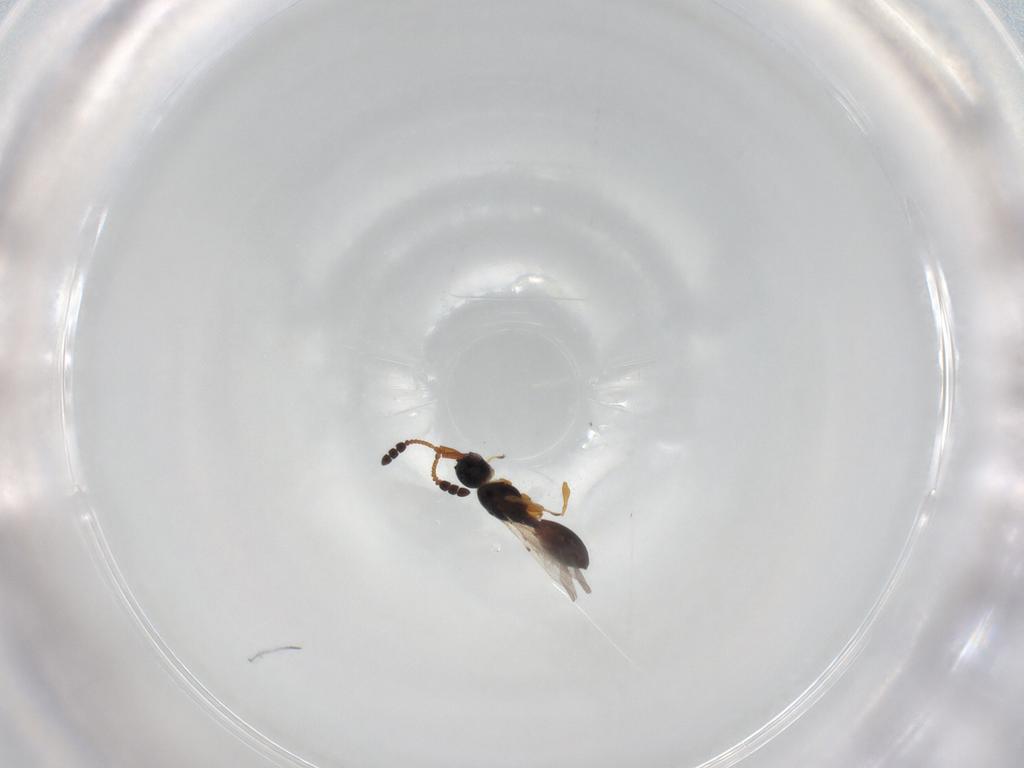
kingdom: Animalia
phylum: Arthropoda
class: Insecta
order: Hymenoptera
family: Diapriidae
